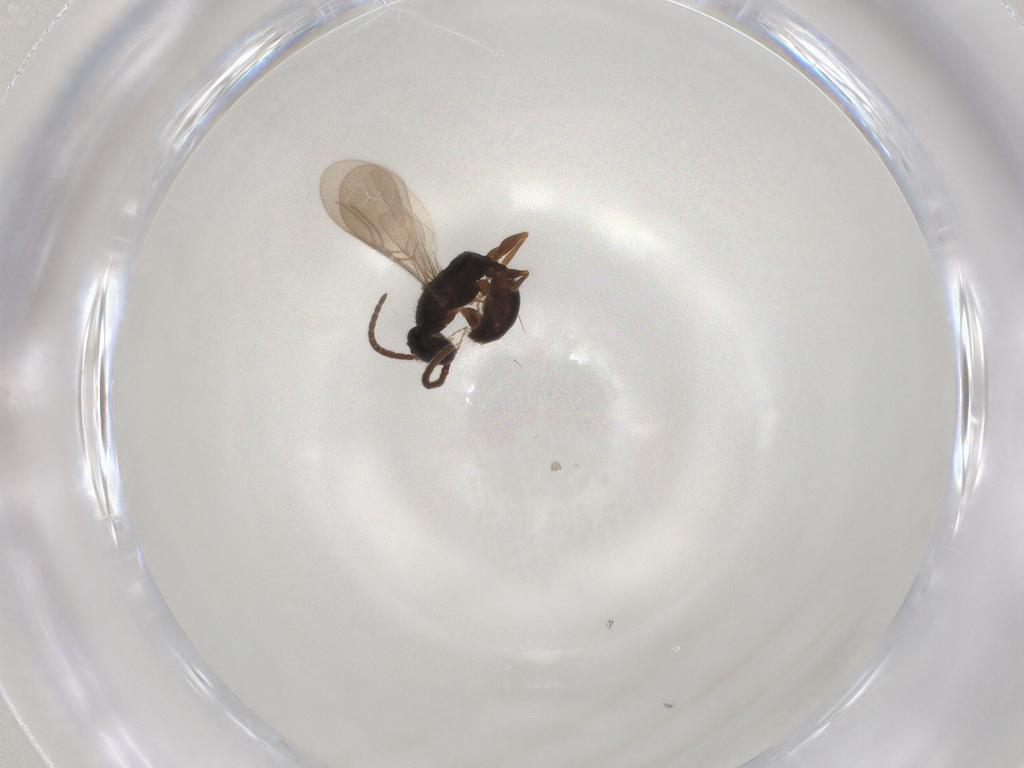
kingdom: Animalia
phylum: Arthropoda
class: Insecta
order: Hymenoptera
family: Bethylidae
